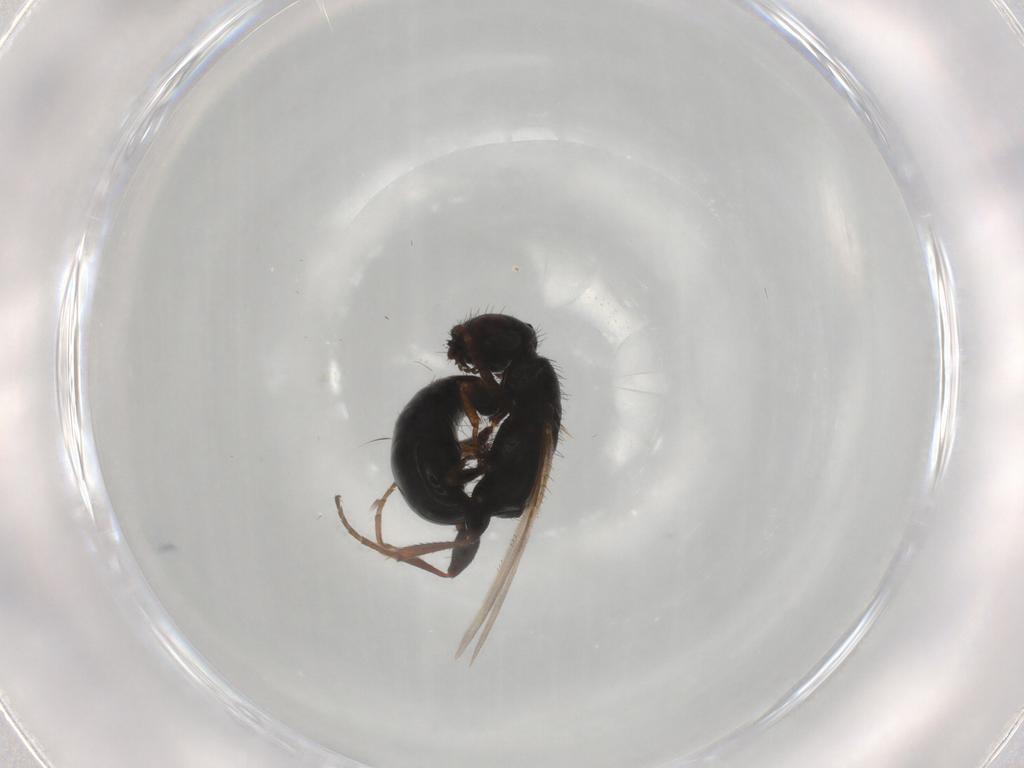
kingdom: Animalia
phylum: Arthropoda
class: Insecta
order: Hymenoptera
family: Bethylidae
